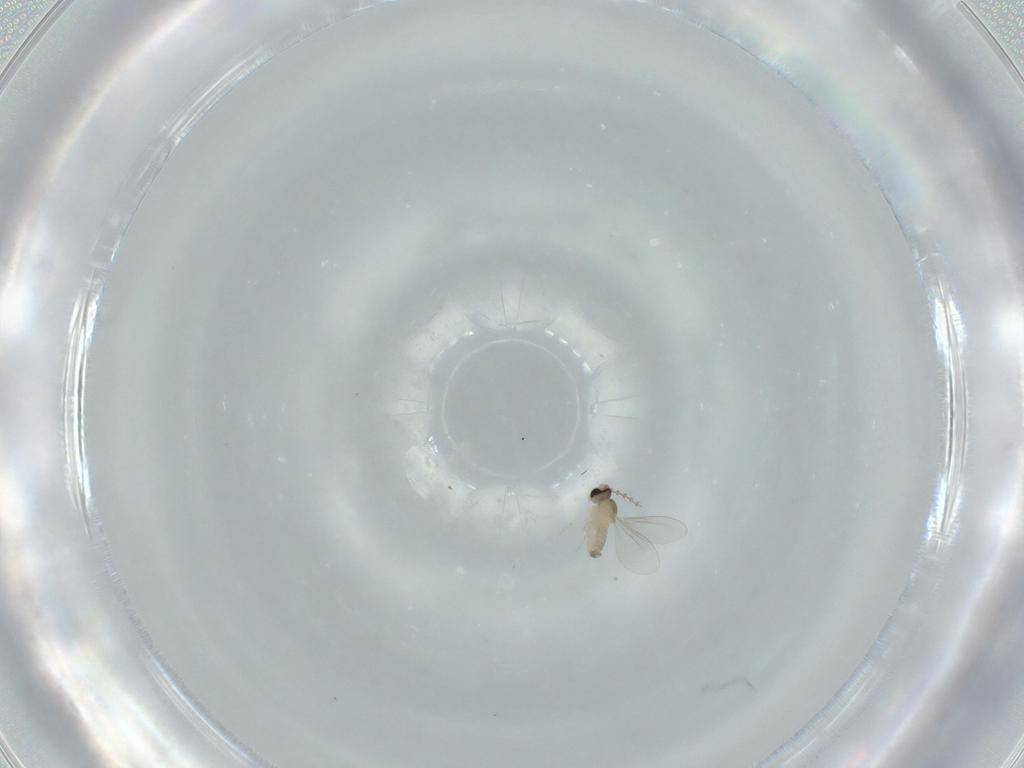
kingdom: Animalia
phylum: Arthropoda
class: Insecta
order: Diptera
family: Cecidomyiidae
